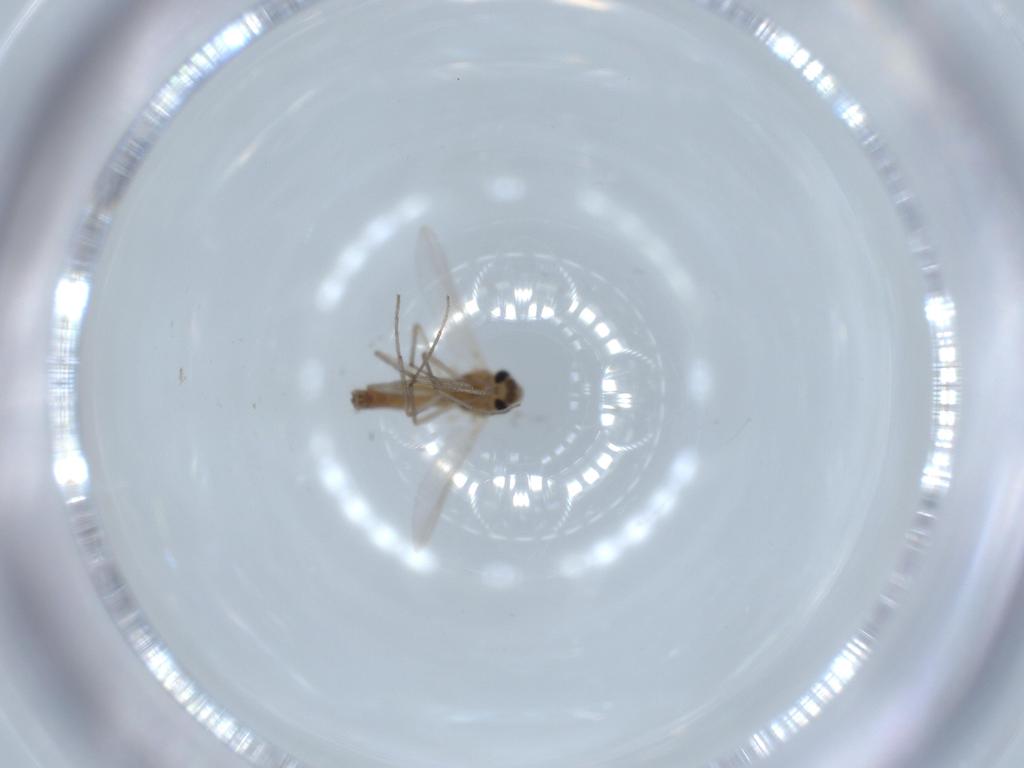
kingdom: Animalia
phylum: Arthropoda
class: Insecta
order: Diptera
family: Chironomidae
